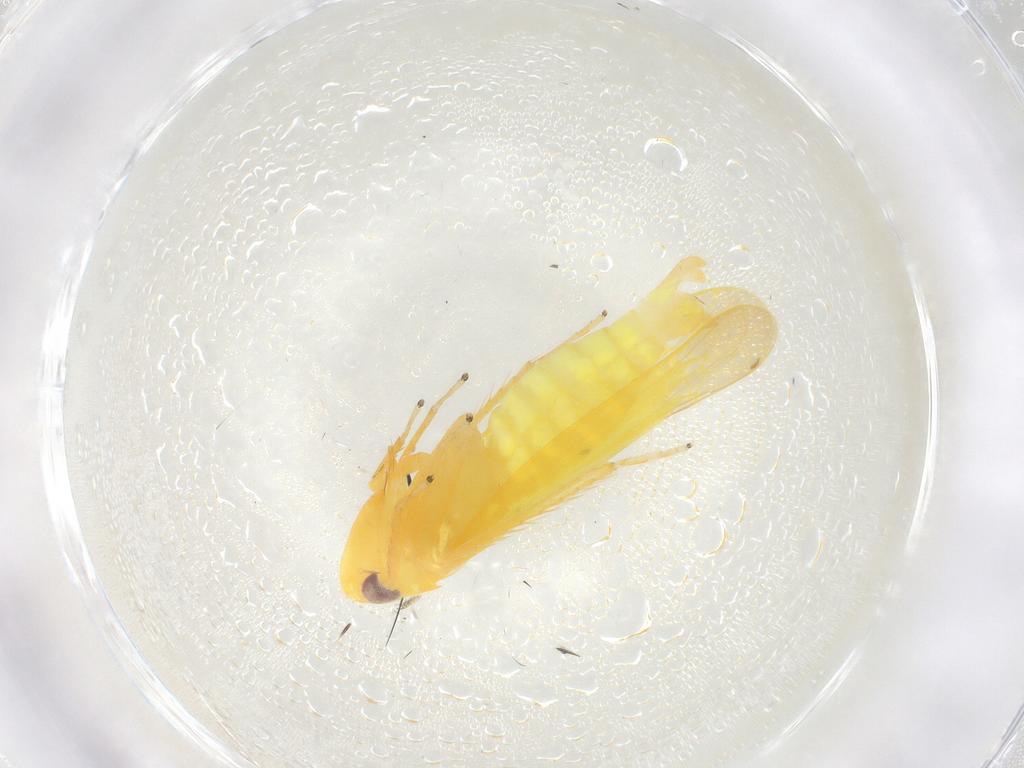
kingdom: Animalia
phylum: Arthropoda
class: Insecta
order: Hemiptera
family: Cicadellidae
